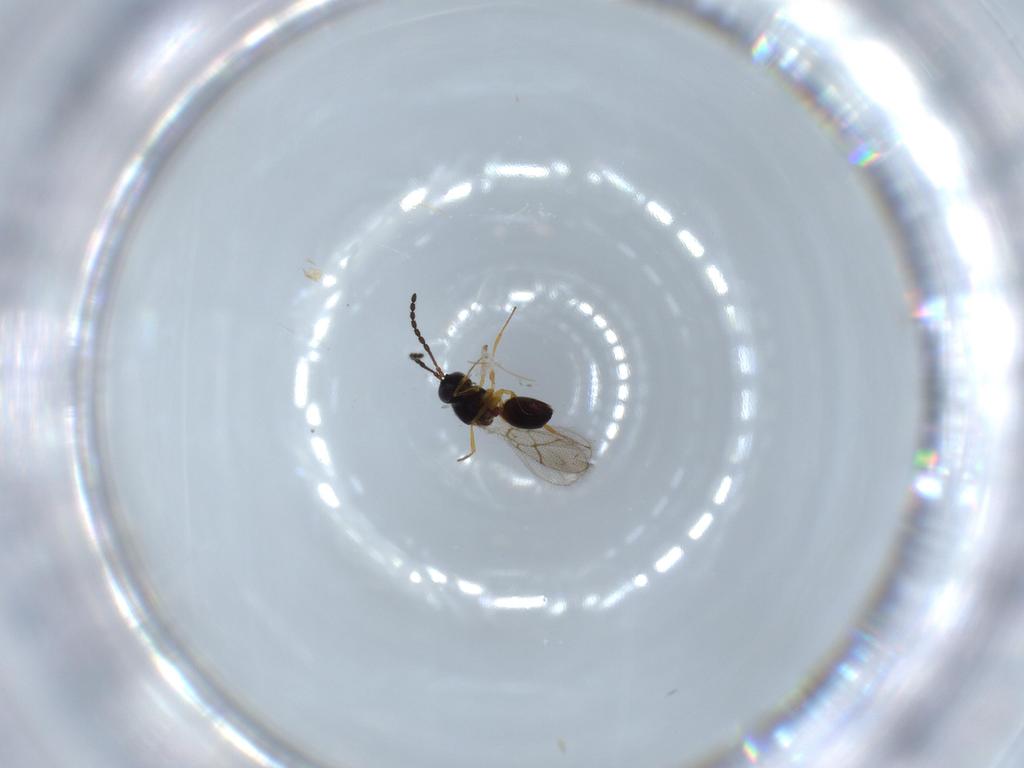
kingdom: Animalia
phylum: Arthropoda
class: Insecta
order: Hymenoptera
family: Figitidae
